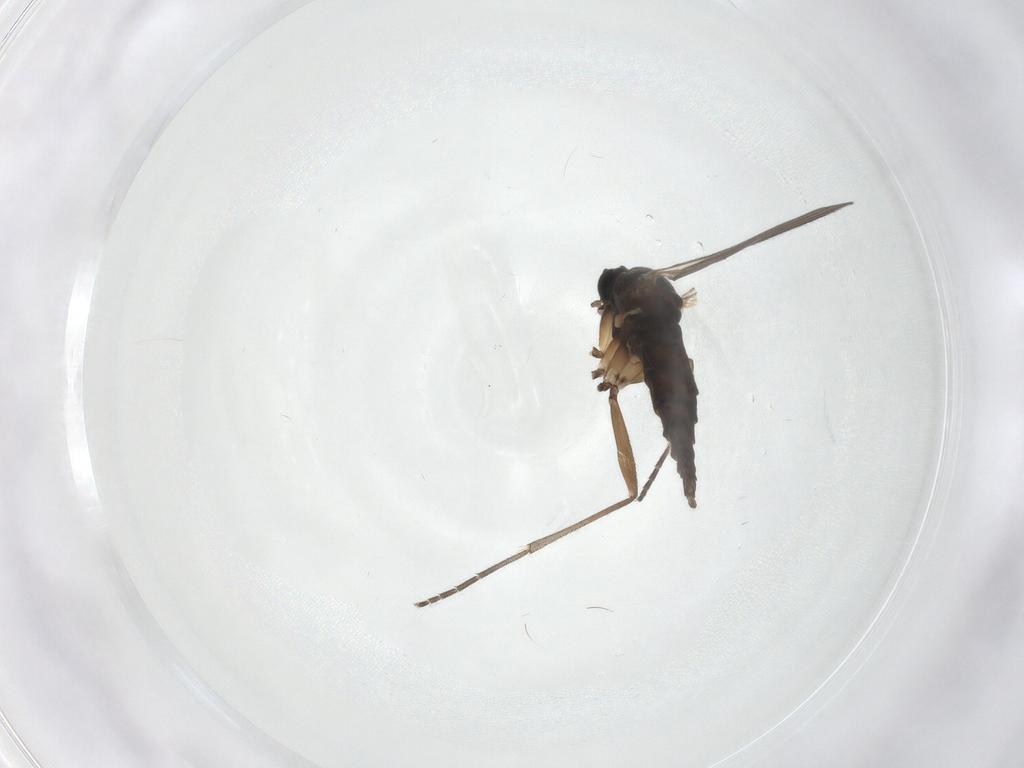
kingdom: Animalia
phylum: Arthropoda
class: Insecta
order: Diptera
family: Sciaridae
